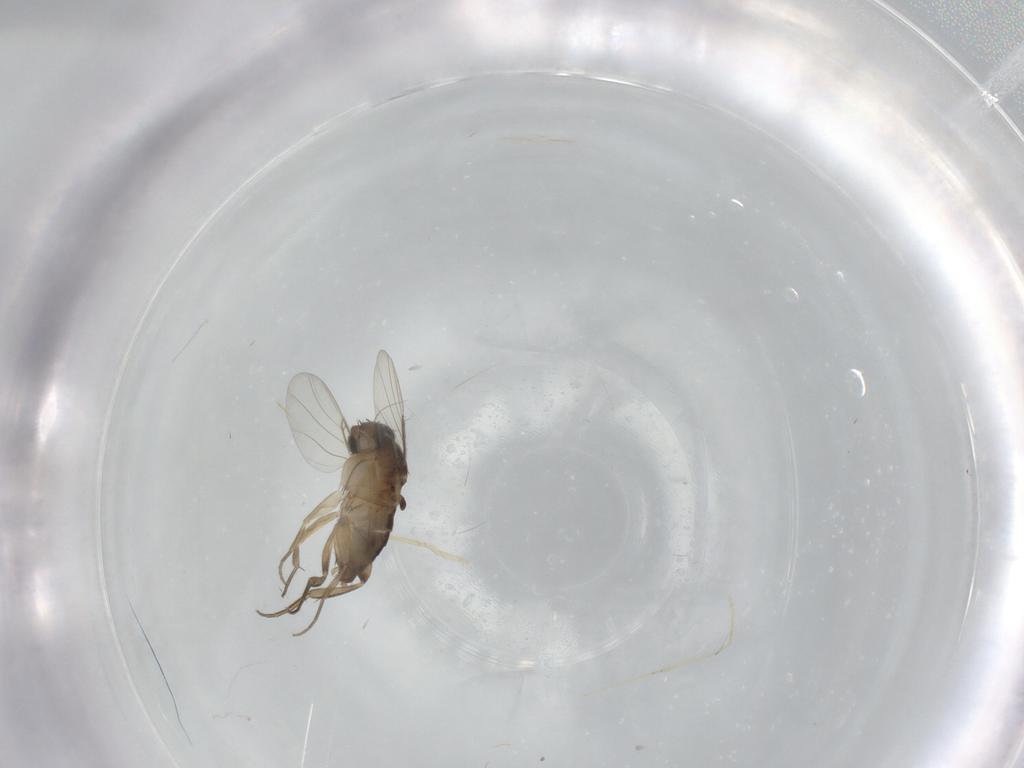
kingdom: Animalia
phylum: Arthropoda
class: Insecta
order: Diptera
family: Phoridae
